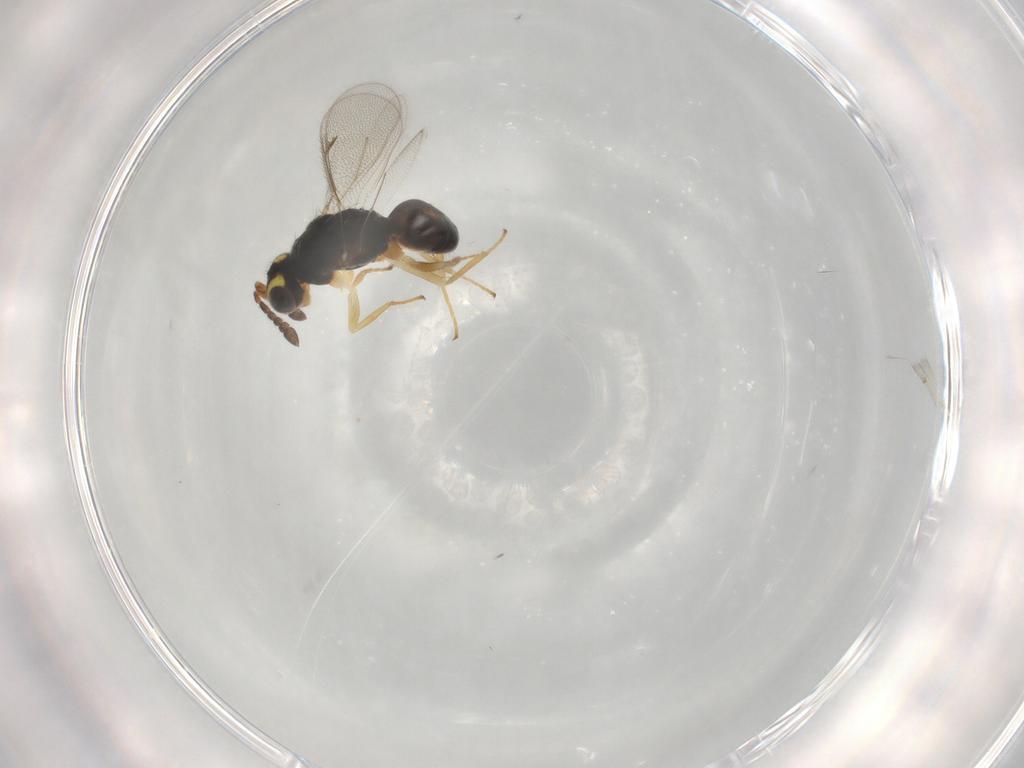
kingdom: Animalia
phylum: Arthropoda
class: Insecta
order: Hymenoptera
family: Eulophidae
